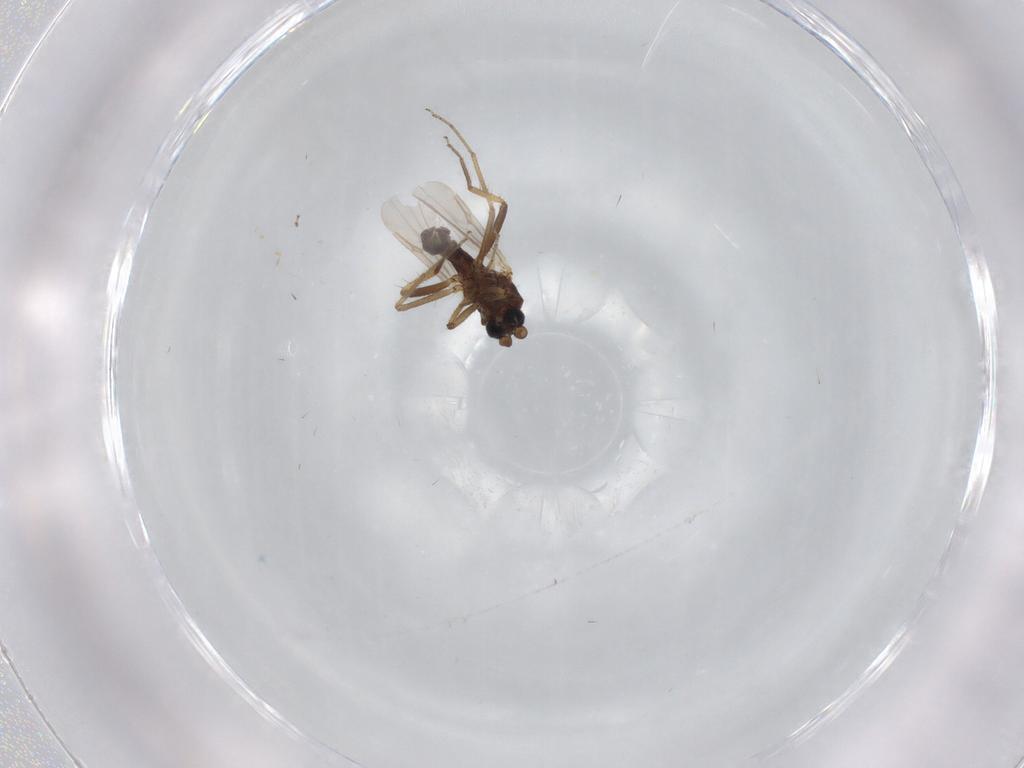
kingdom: Animalia
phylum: Arthropoda
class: Insecta
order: Diptera
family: Ceratopogonidae
